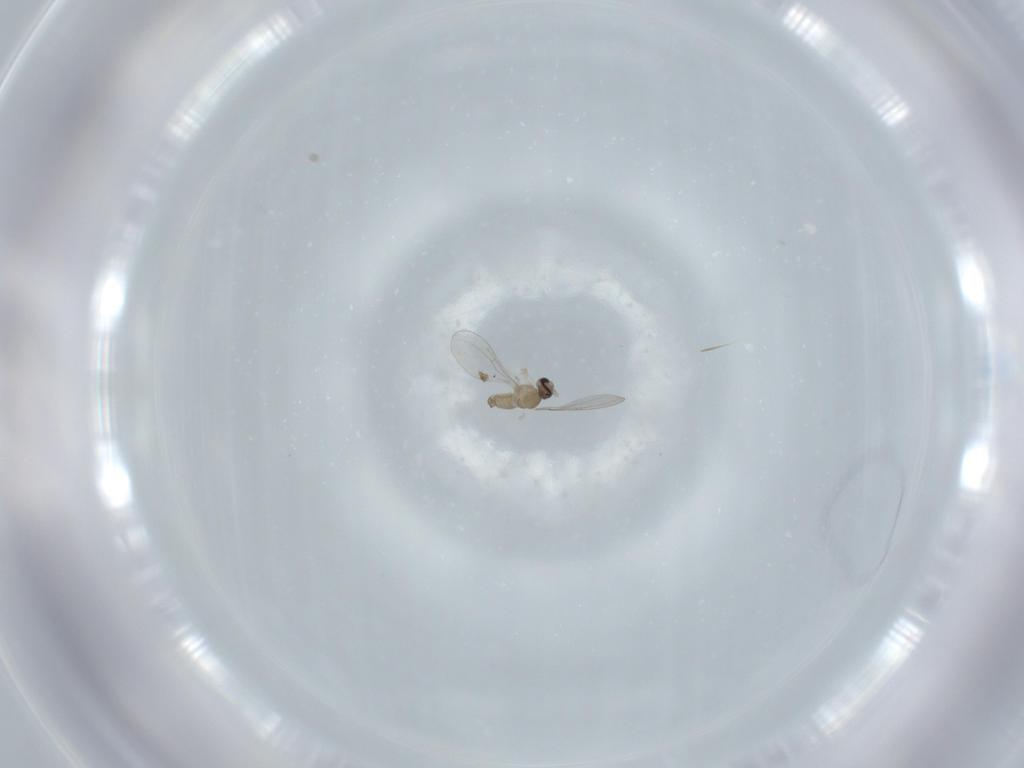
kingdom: Animalia
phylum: Arthropoda
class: Insecta
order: Diptera
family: Cecidomyiidae
